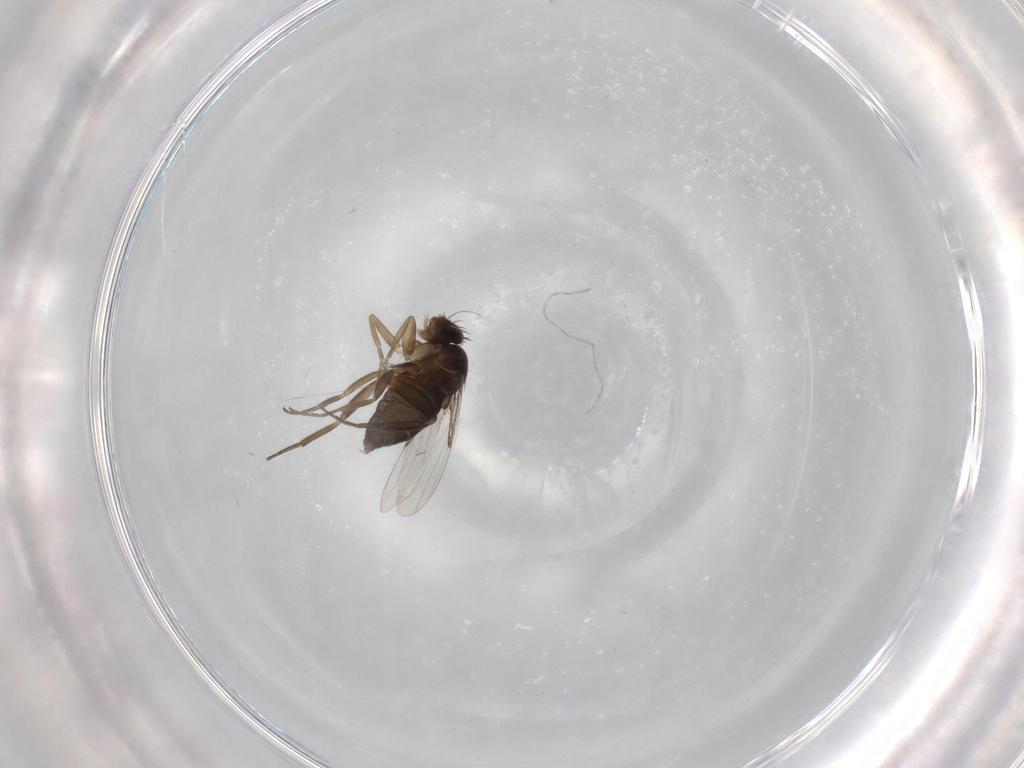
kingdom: Animalia
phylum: Arthropoda
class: Insecta
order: Diptera
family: Phoridae
